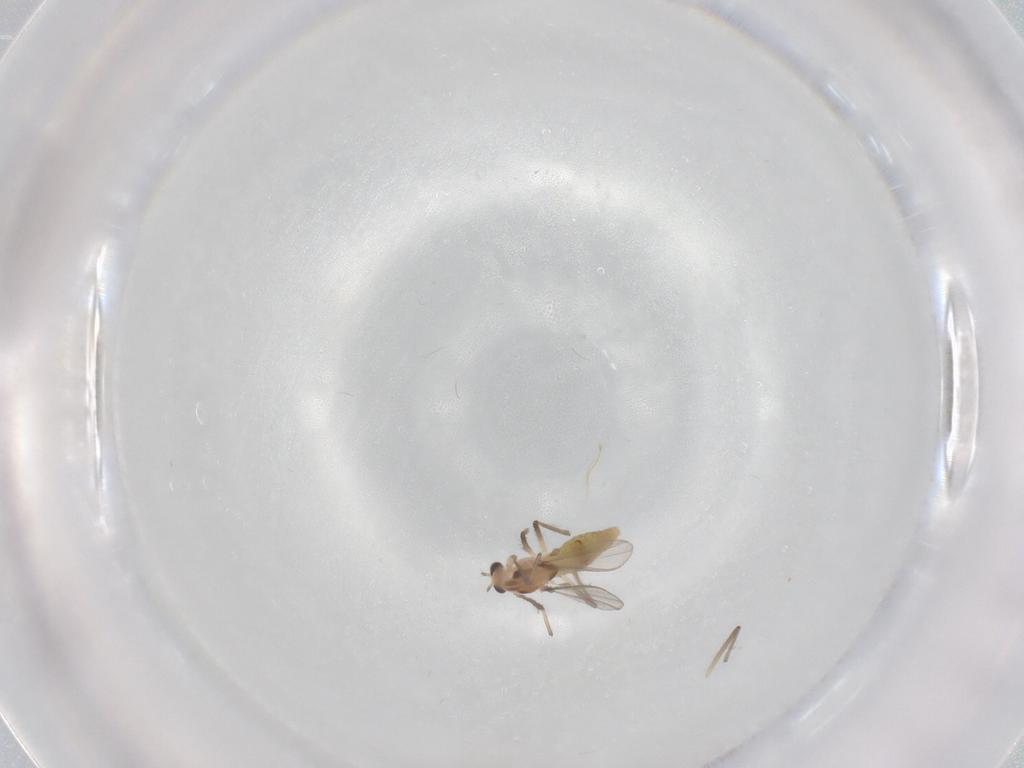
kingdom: Animalia
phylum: Arthropoda
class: Insecta
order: Diptera
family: Chironomidae
